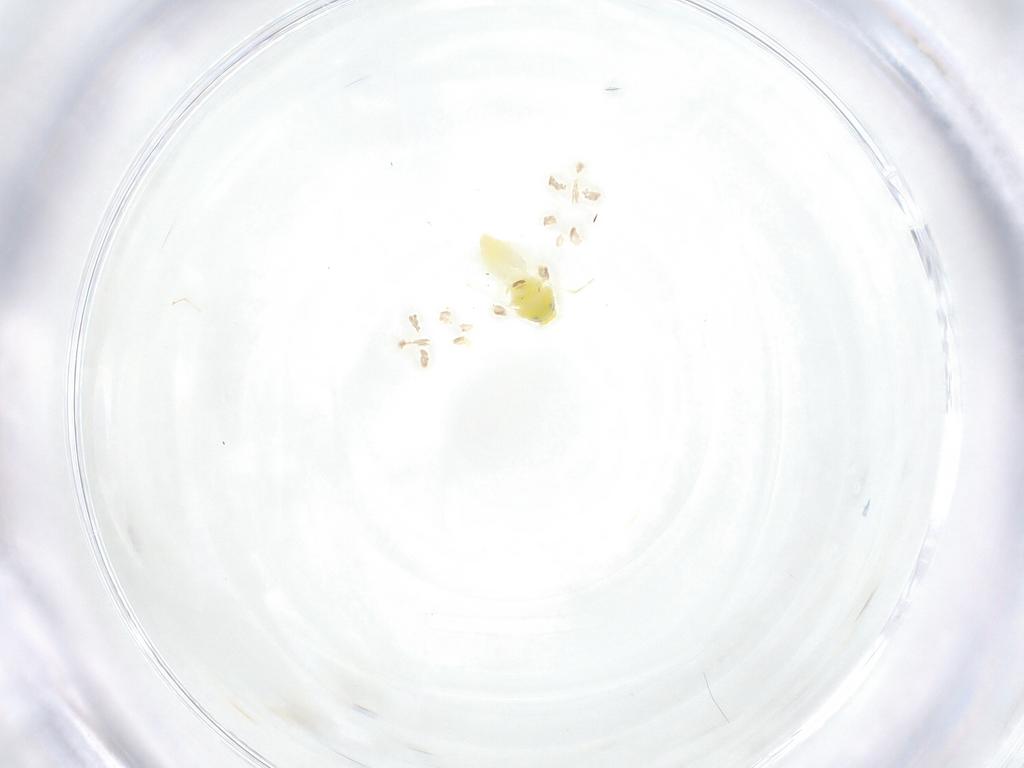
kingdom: Animalia
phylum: Arthropoda
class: Insecta
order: Hemiptera
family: Aleyrodidae
